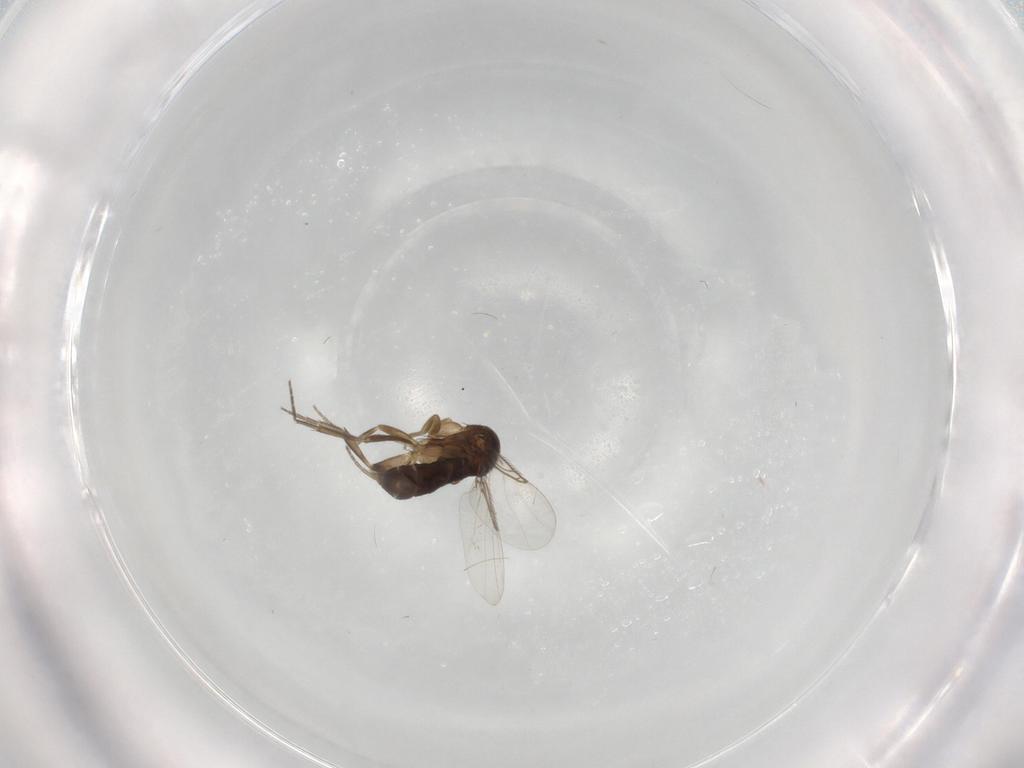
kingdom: Animalia
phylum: Arthropoda
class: Insecta
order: Diptera
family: Phoridae
